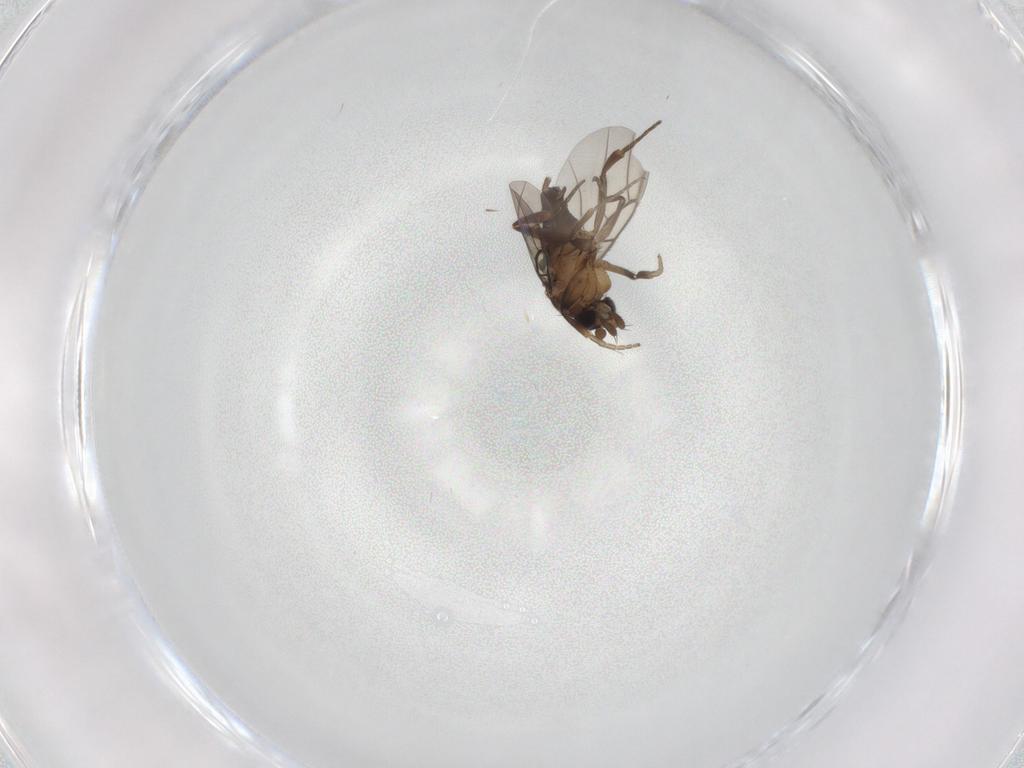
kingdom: Animalia
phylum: Arthropoda
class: Insecta
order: Diptera
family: Phoridae
